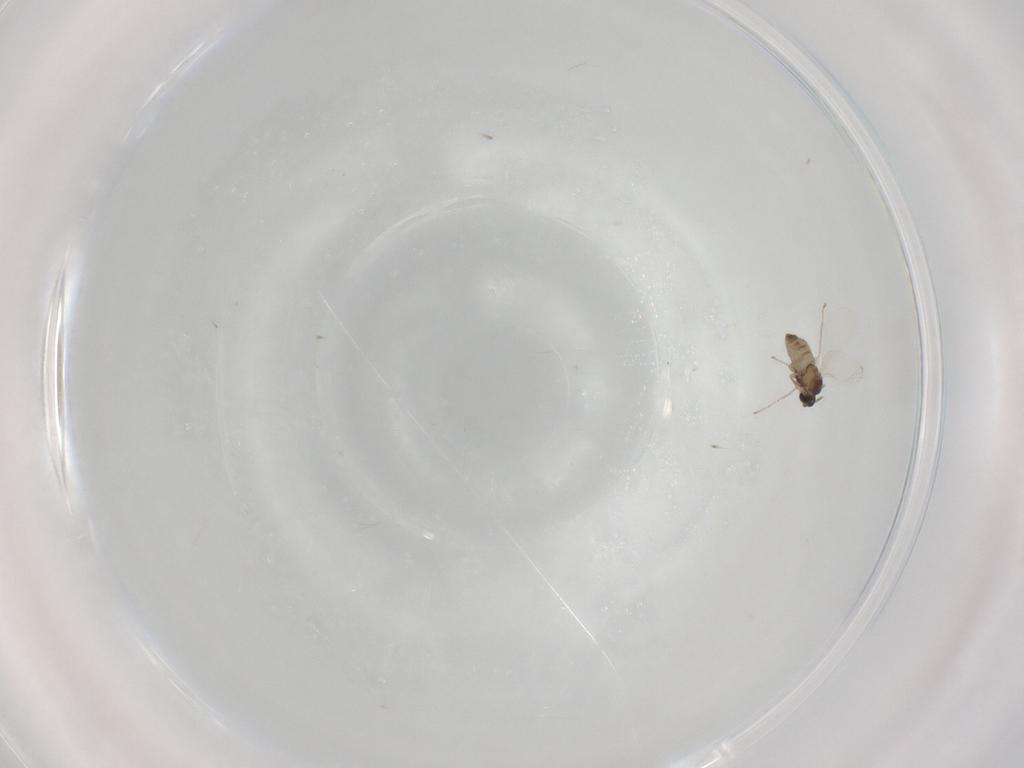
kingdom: Animalia
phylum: Arthropoda
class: Insecta
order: Diptera
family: Cecidomyiidae
